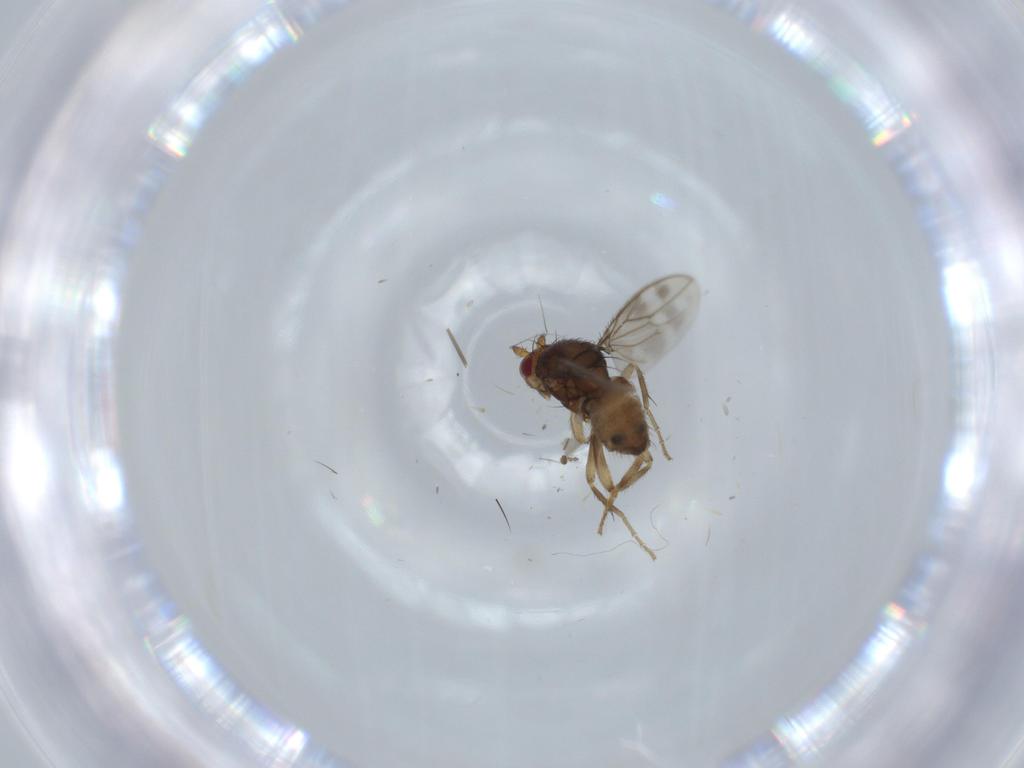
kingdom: Animalia
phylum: Arthropoda
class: Insecta
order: Diptera
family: Sphaeroceridae
